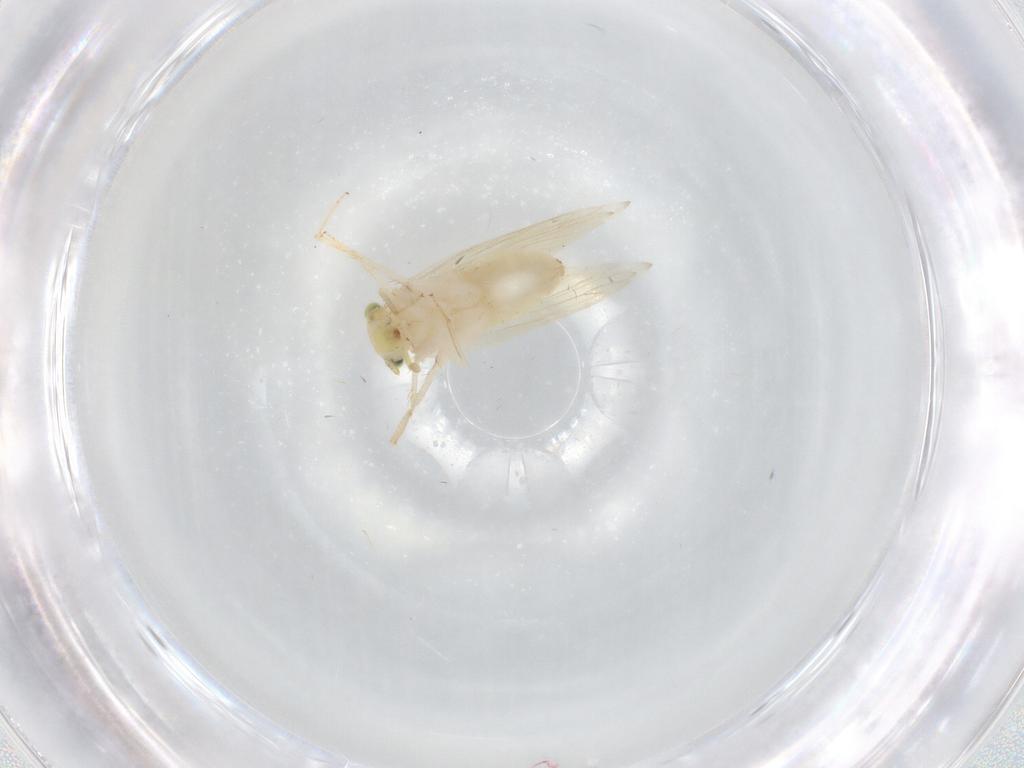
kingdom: Animalia
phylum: Arthropoda
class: Insecta
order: Psocodea
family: Lepidopsocidae
